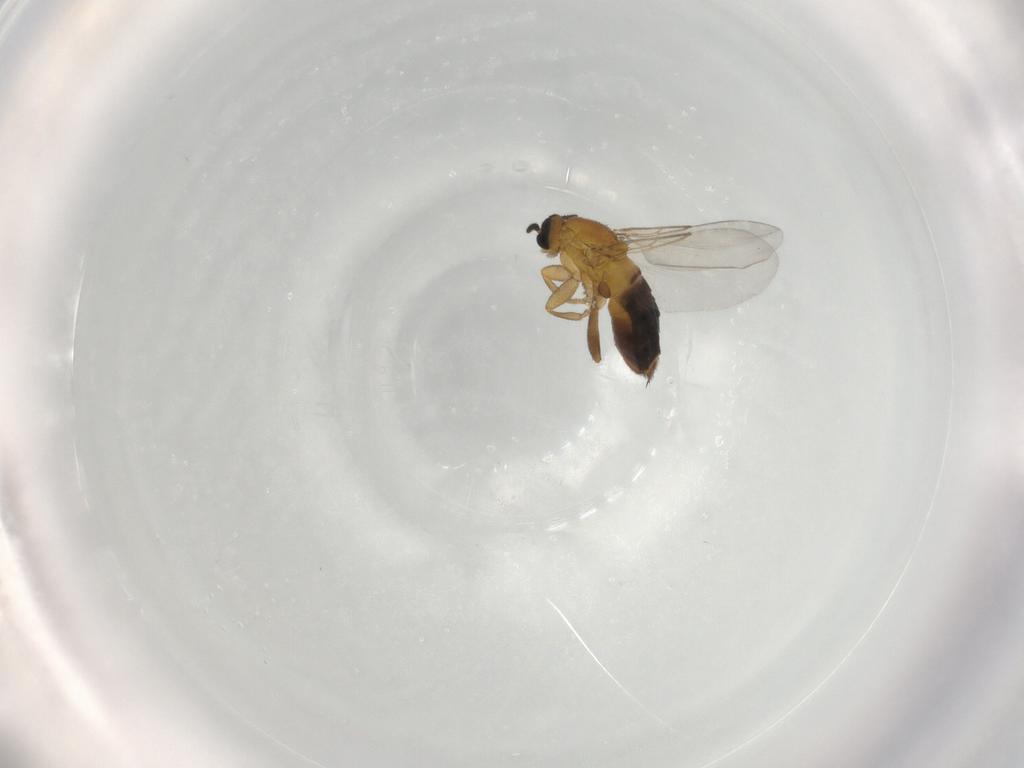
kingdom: Animalia
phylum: Arthropoda
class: Insecta
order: Diptera
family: Scatopsidae
